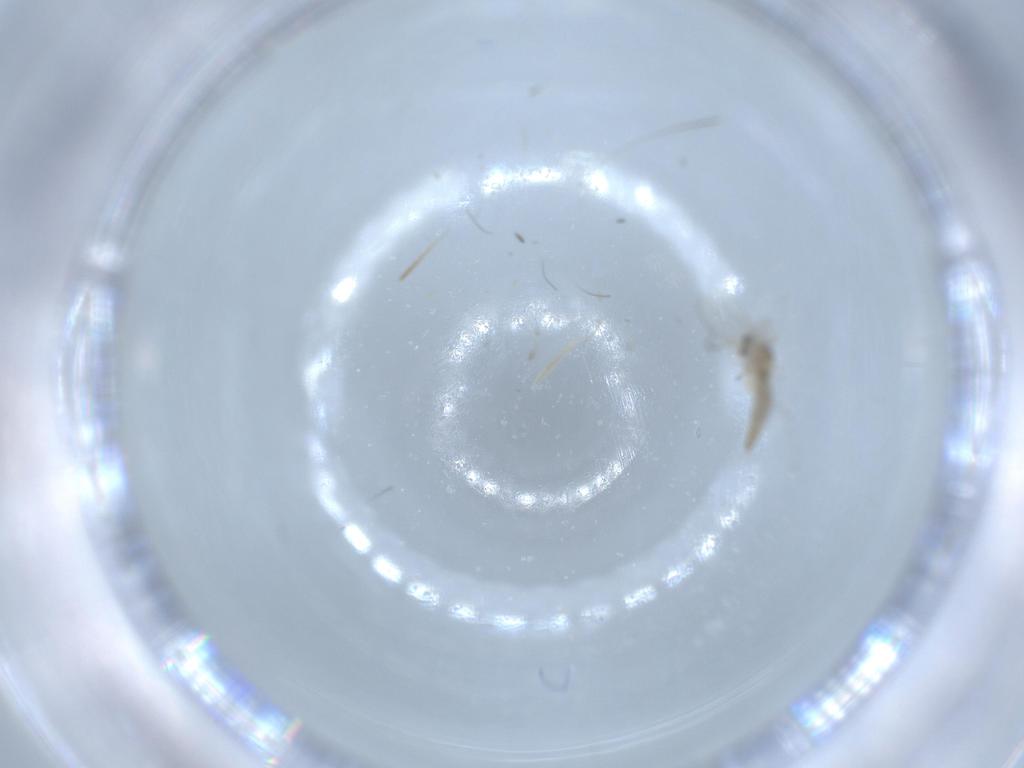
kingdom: Animalia
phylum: Arthropoda
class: Insecta
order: Diptera
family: Cecidomyiidae
